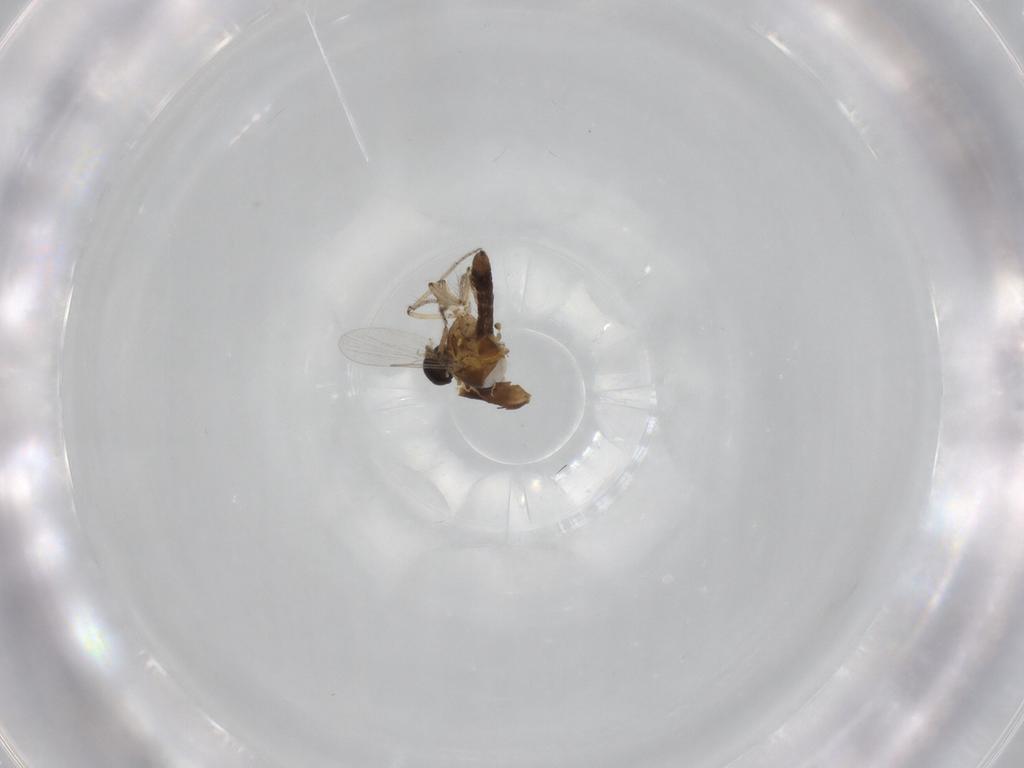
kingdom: Animalia
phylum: Arthropoda
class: Insecta
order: Diptera
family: Ceratopogonidae
